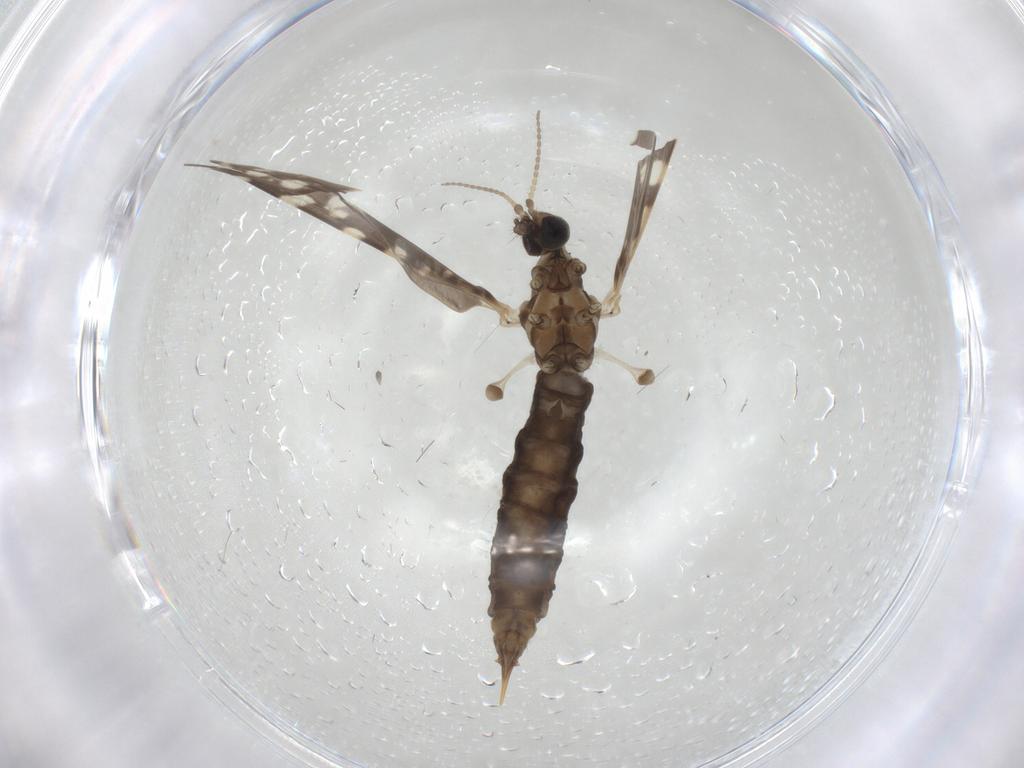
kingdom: Animalia
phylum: Arthropoda
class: Insecta
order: Diptera
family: Limoniidae
